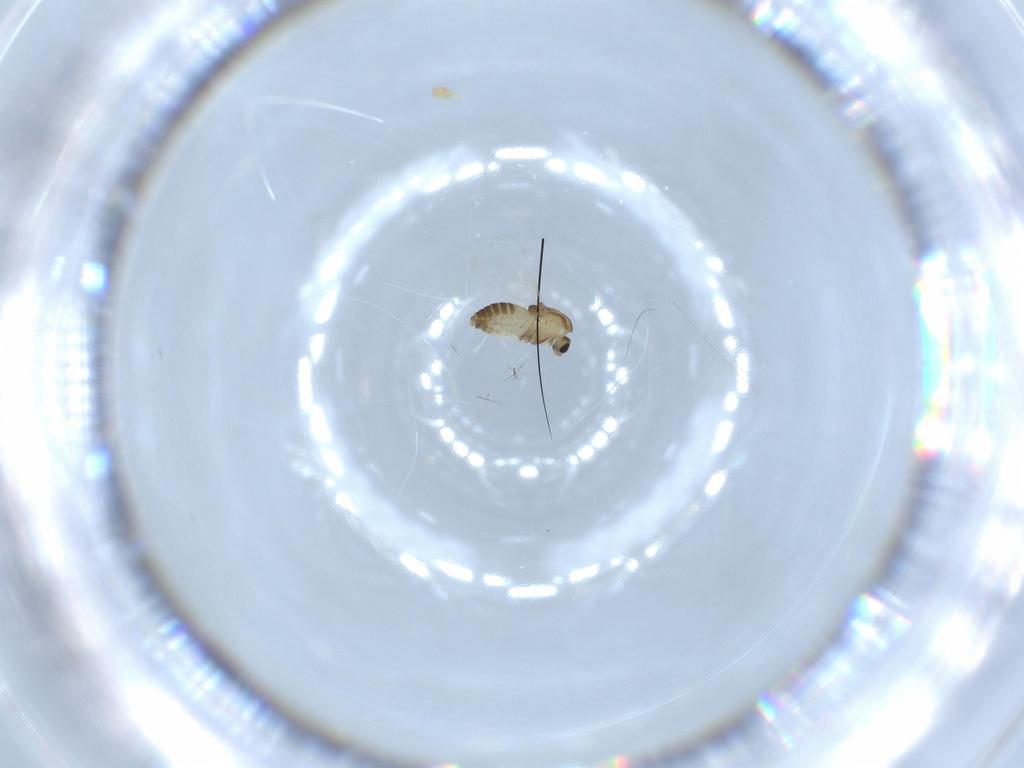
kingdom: Animalia
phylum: Arthropoda
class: Insecta
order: Diptera
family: Chironomidae
